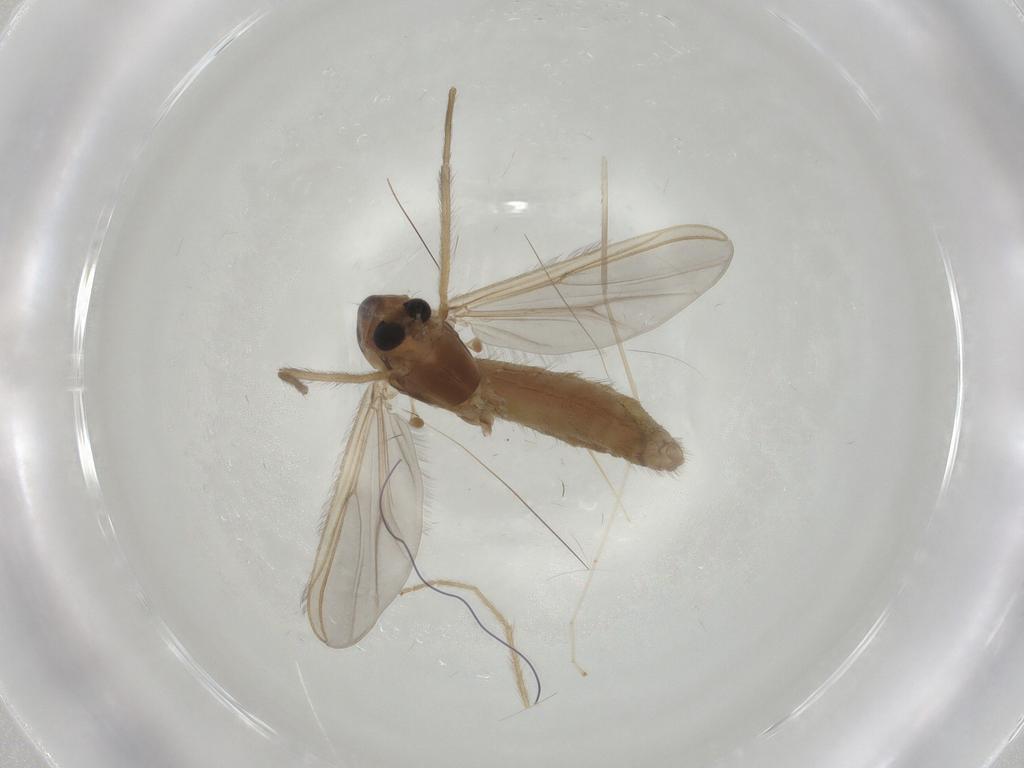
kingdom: Animalia
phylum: Arthropoda
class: Insecta
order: Diptera
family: Chironomidae
